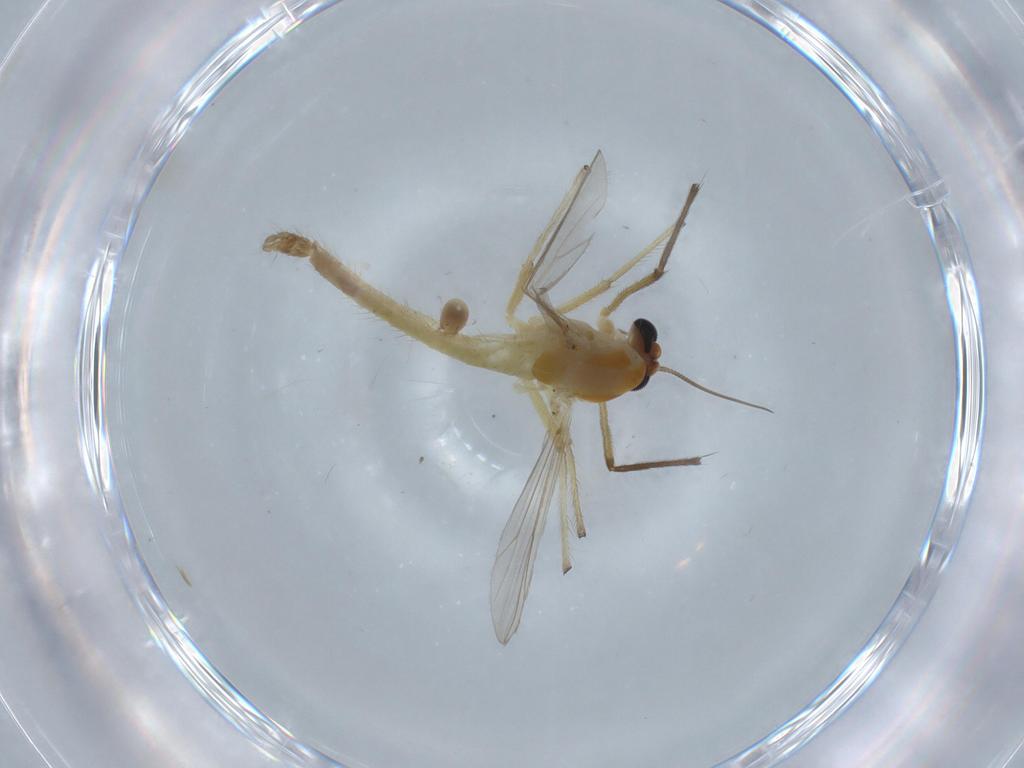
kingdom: Animalia
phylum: Arthropoda
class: Insecta
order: Diptera
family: Chironomidae
